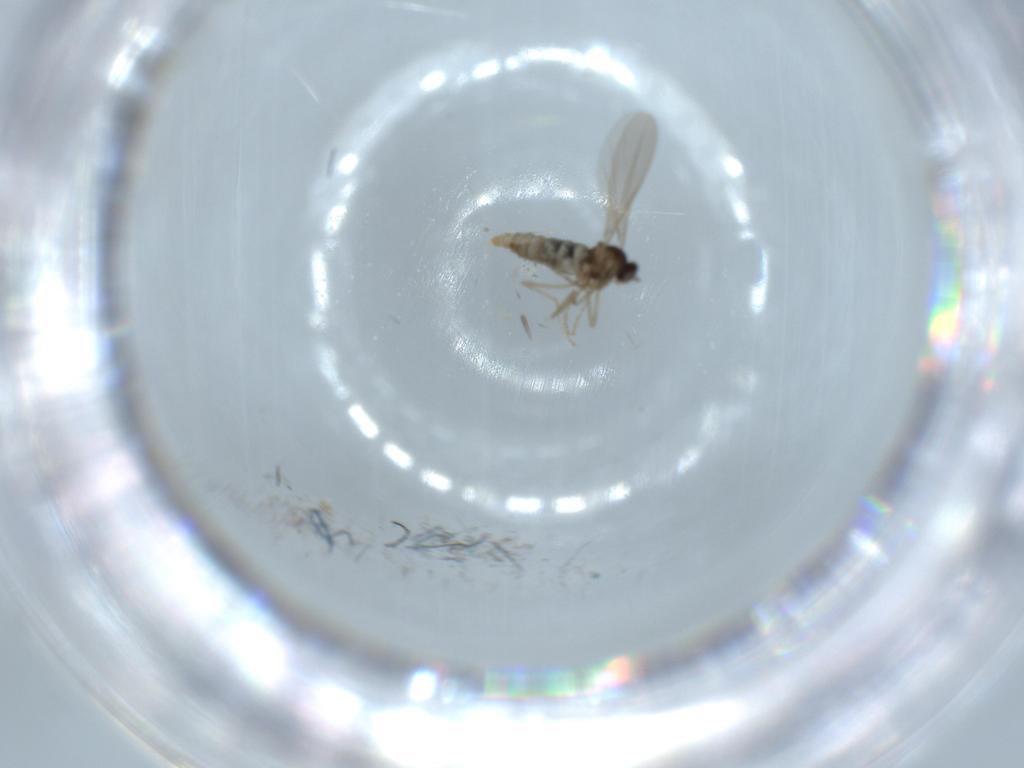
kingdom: Animalia
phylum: Arthropoda
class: Insecta
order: Diptera
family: Cecidomyiidae
